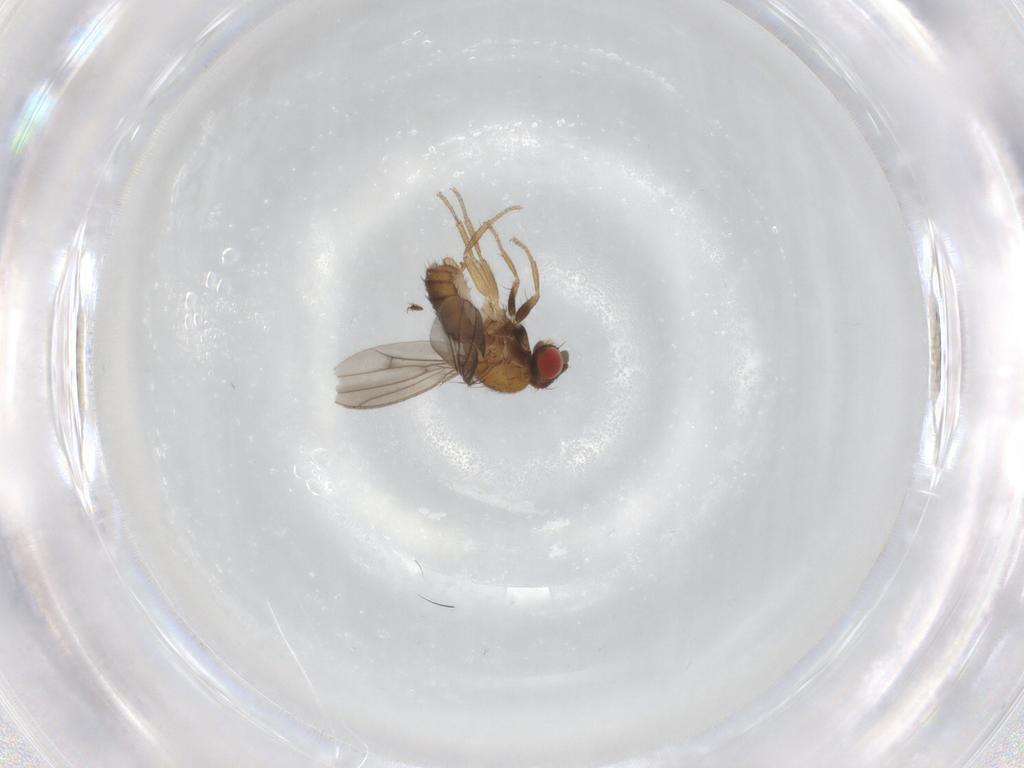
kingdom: Animalia
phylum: Arthropoda
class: Insecta
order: Diptera
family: Drosophilidae
